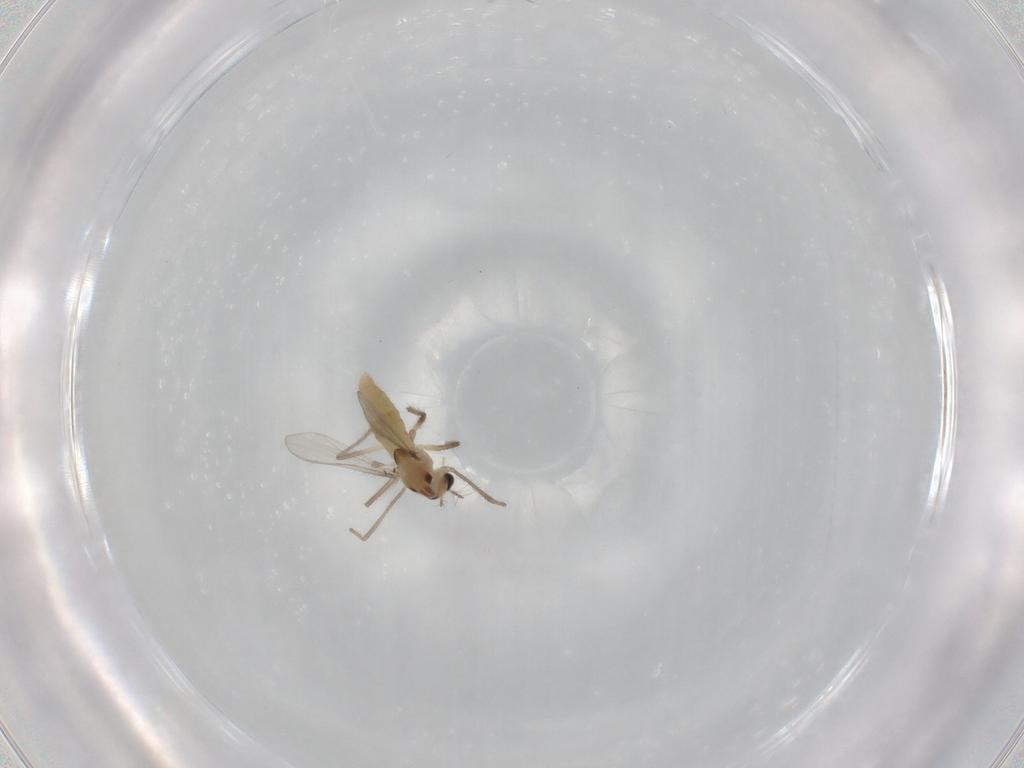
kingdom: Animalia
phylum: Arthropoda
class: Insecta
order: Diptera
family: Chironomidae
